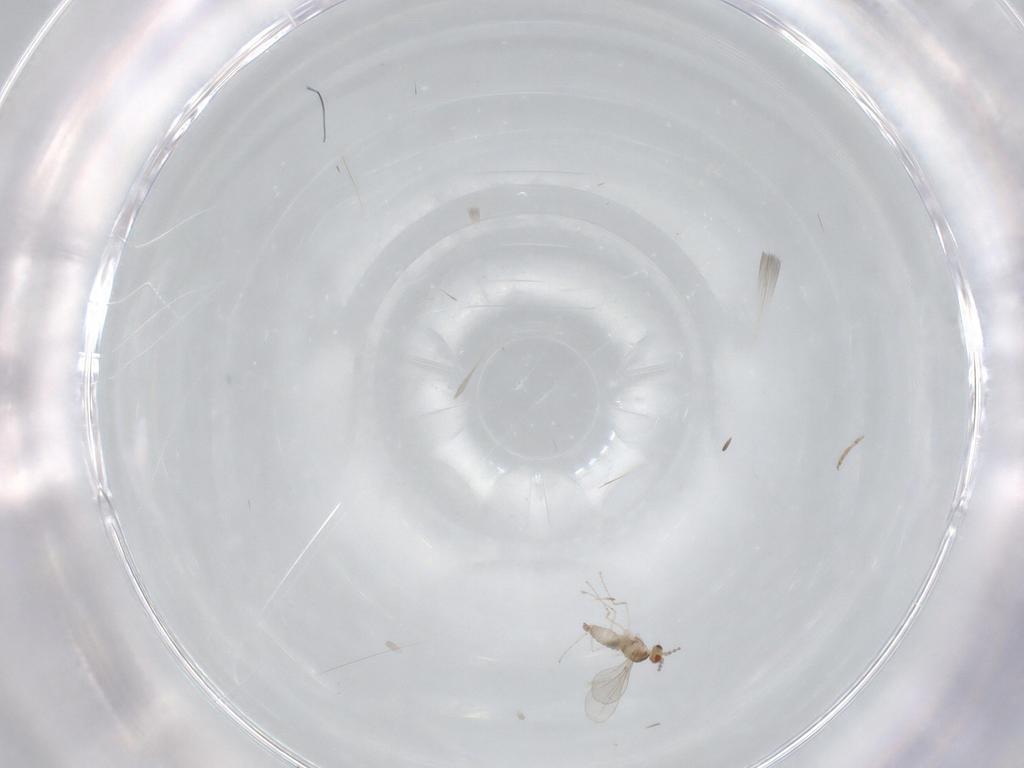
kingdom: Animalia
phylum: Arthropoda
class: Insecta
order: Diptera
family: Ceratopogonidae
